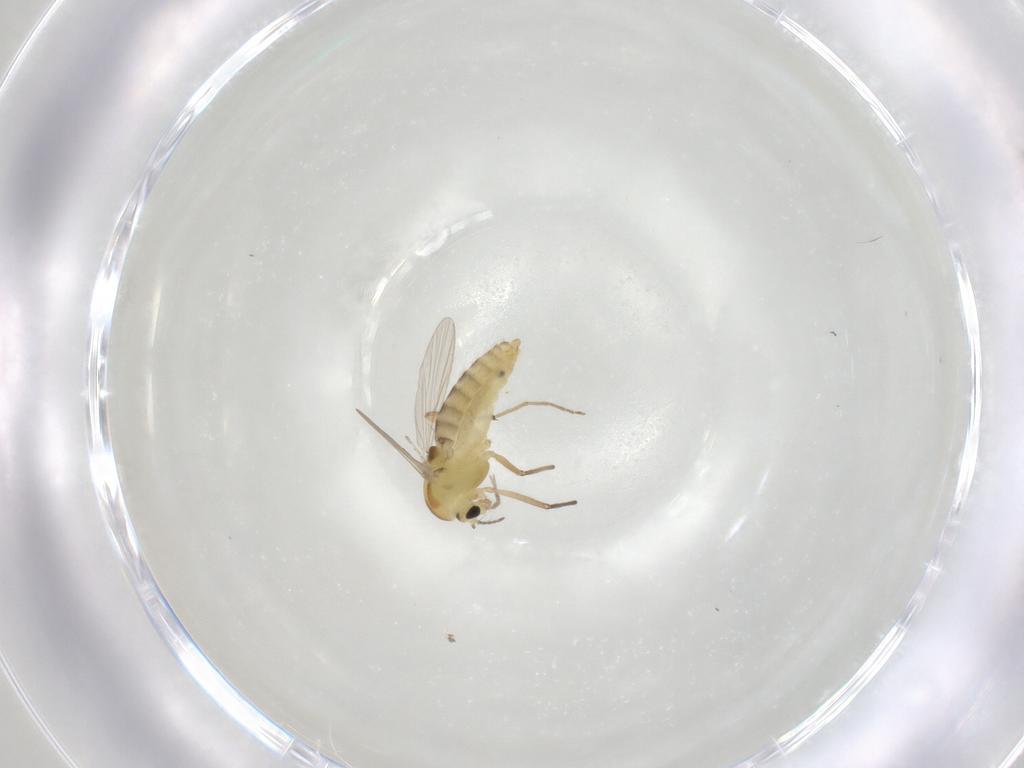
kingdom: Animalia
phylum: Arthropoda
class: Insecta
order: Diptera
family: Chironomidae
